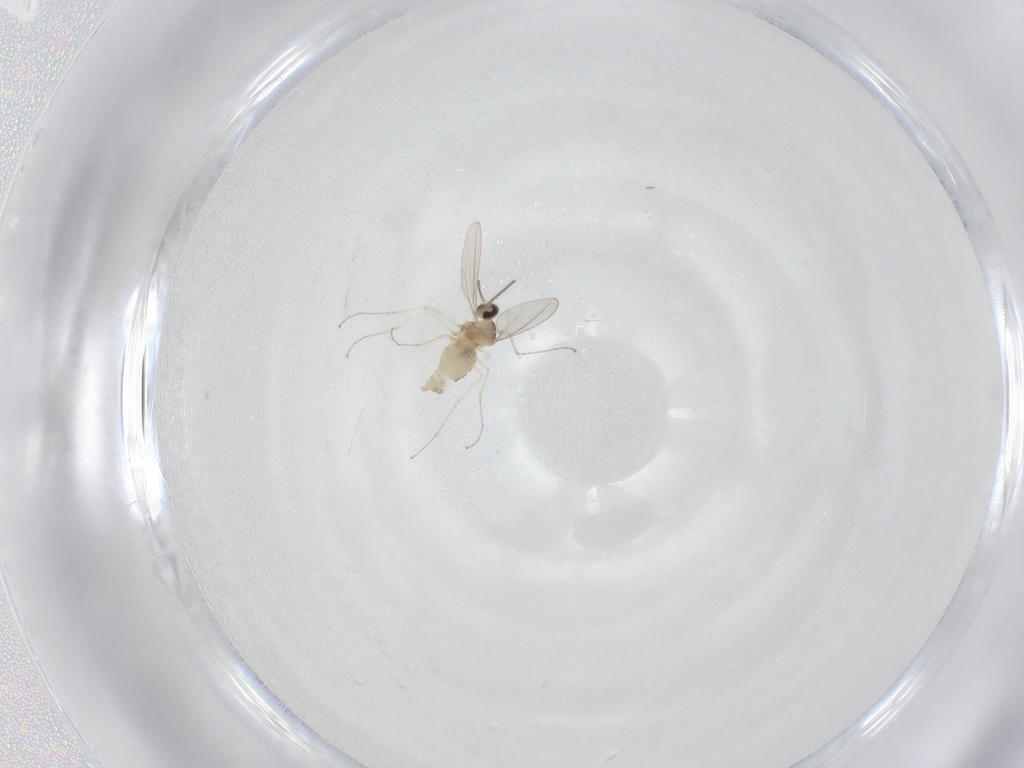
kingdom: Animalia
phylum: Arthropoda
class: Insecta
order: Diptera
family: Cecidomyiidae
